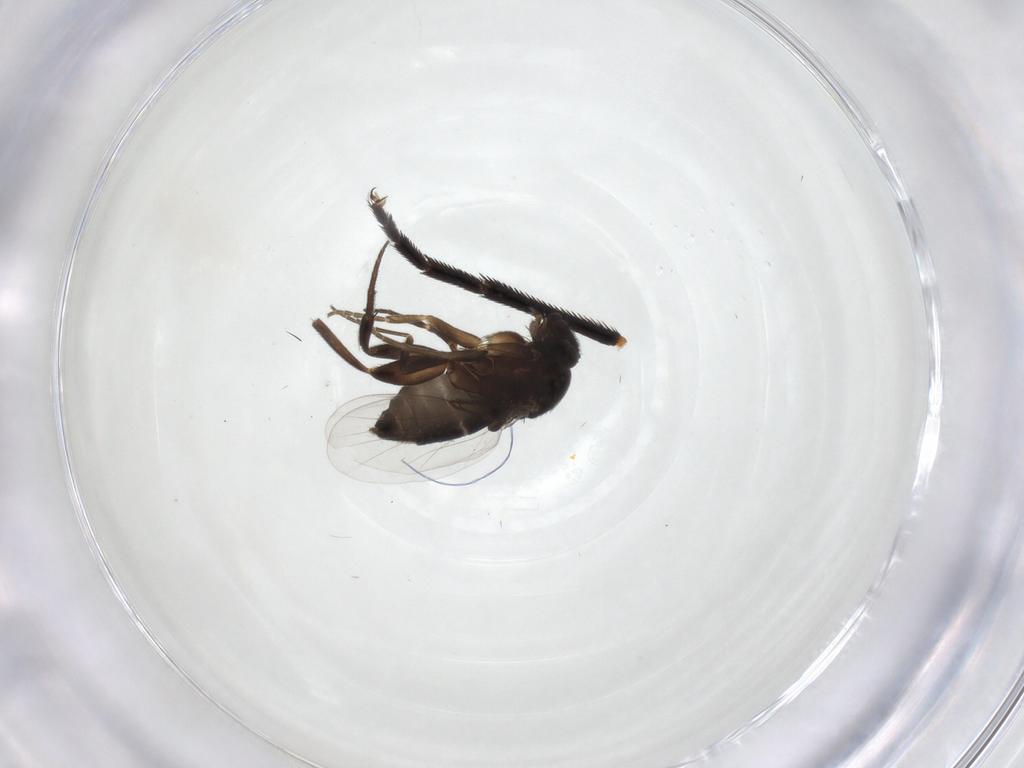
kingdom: Animalia
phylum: Arthropoda
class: Insecta
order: Diptera
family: Muscidae
